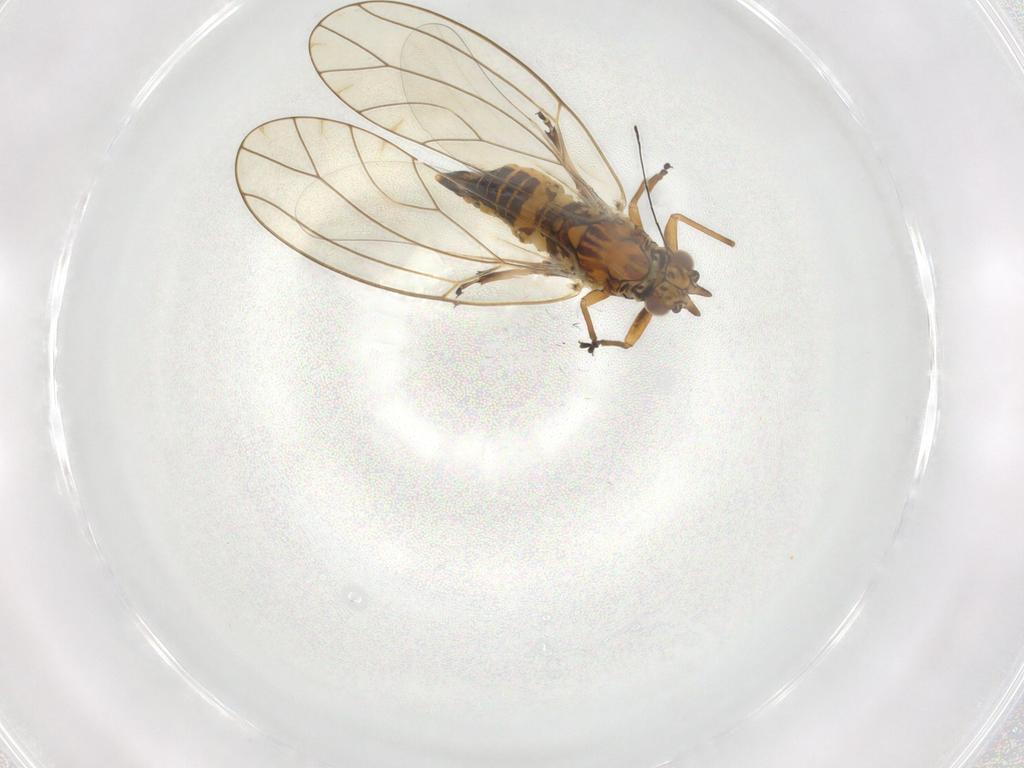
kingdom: Animalia
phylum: Arthropoda
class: Insecta
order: Hemiptera
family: Triozidae
